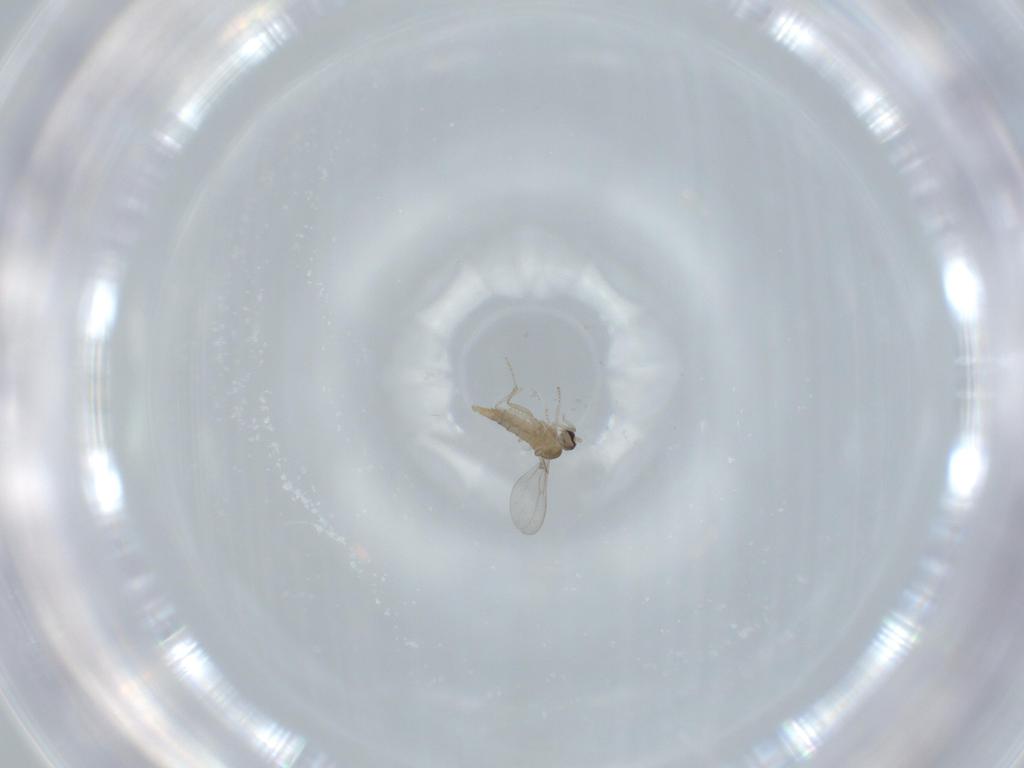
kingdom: Animalia
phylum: Arthropoda
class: Insecta
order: Diptera
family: Cecidomyiidae
